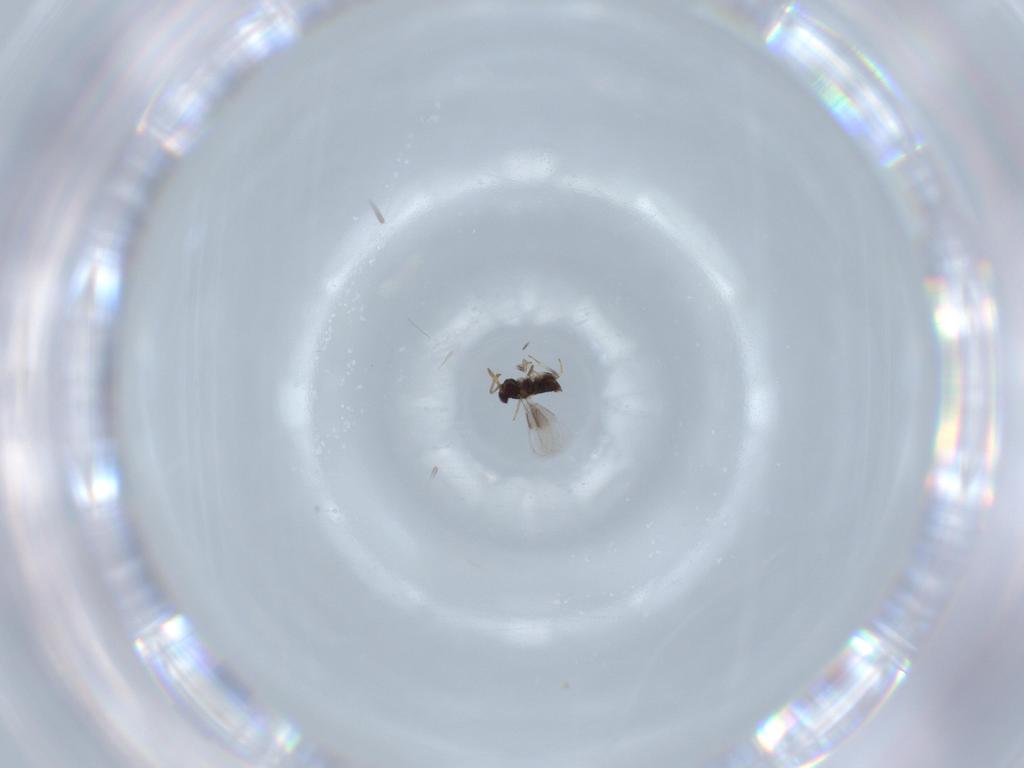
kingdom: Animalia
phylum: Arthropoda
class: Insecta
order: Hymenoptera
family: Aphelinidae
